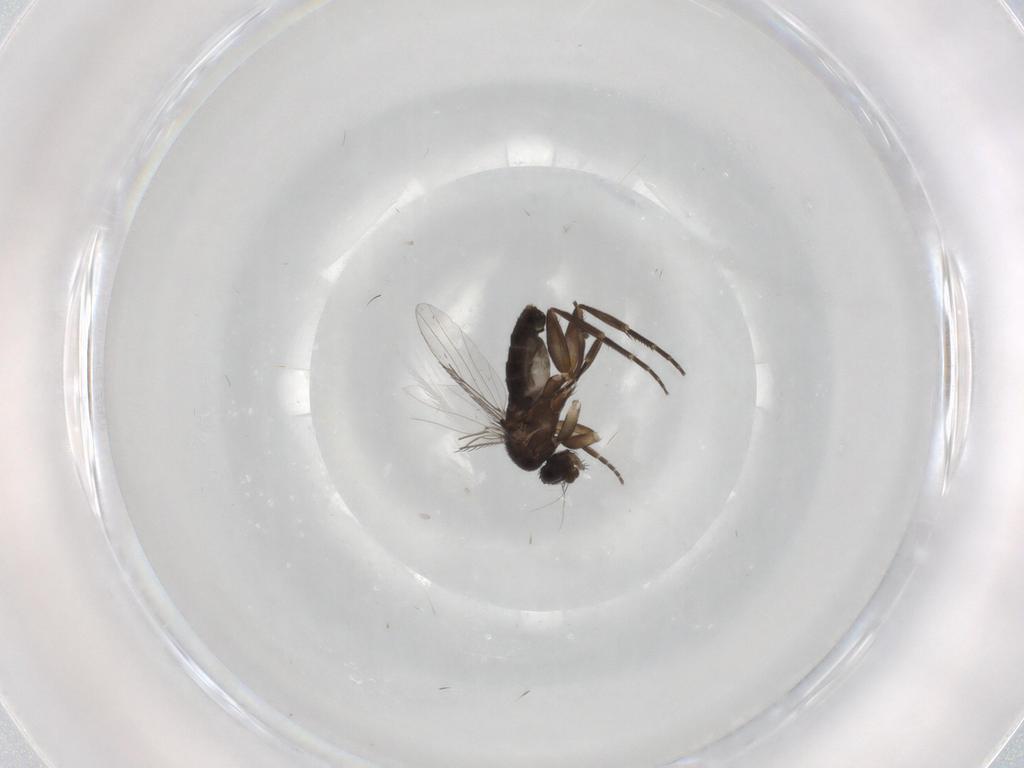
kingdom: Animalia
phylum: Arthropoda
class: Insecta
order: Diptera
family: Phoridae
